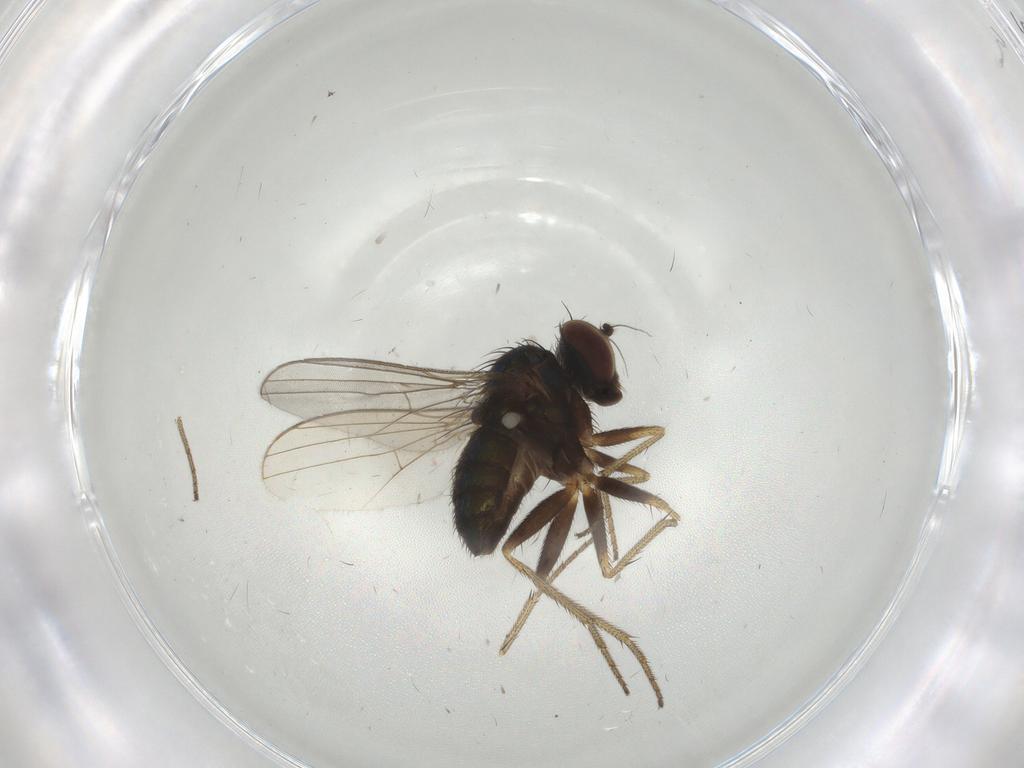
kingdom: Animalia
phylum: Arthropoda
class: Insecta
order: Diptera
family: Dolichopodidae
